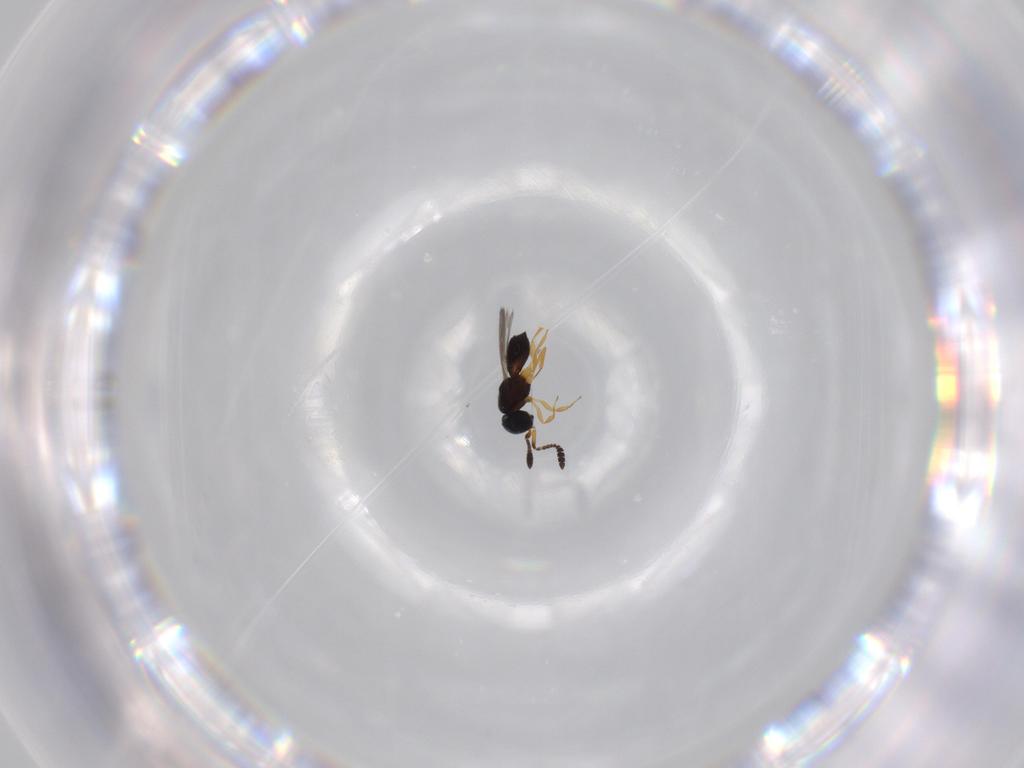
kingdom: Animalia
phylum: Arthropoda
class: Insecta
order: Hymenoptera
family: Scelionidae
